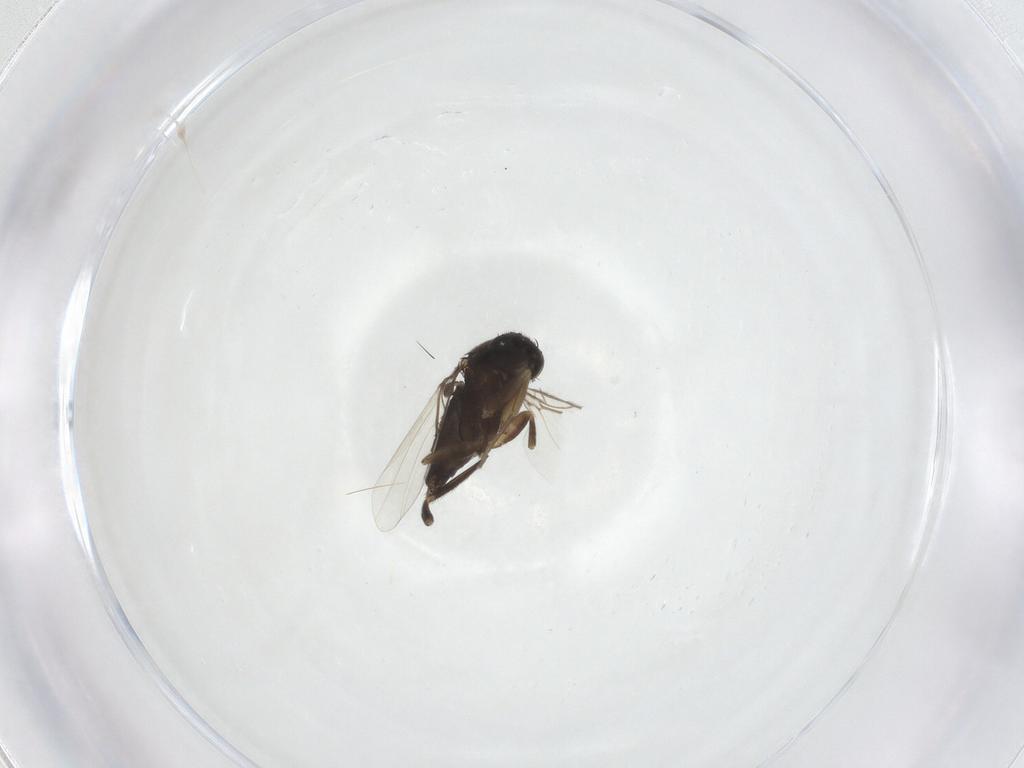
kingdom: Animalia
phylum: Arthropoda
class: Insecta
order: Diptera
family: Phoridae
